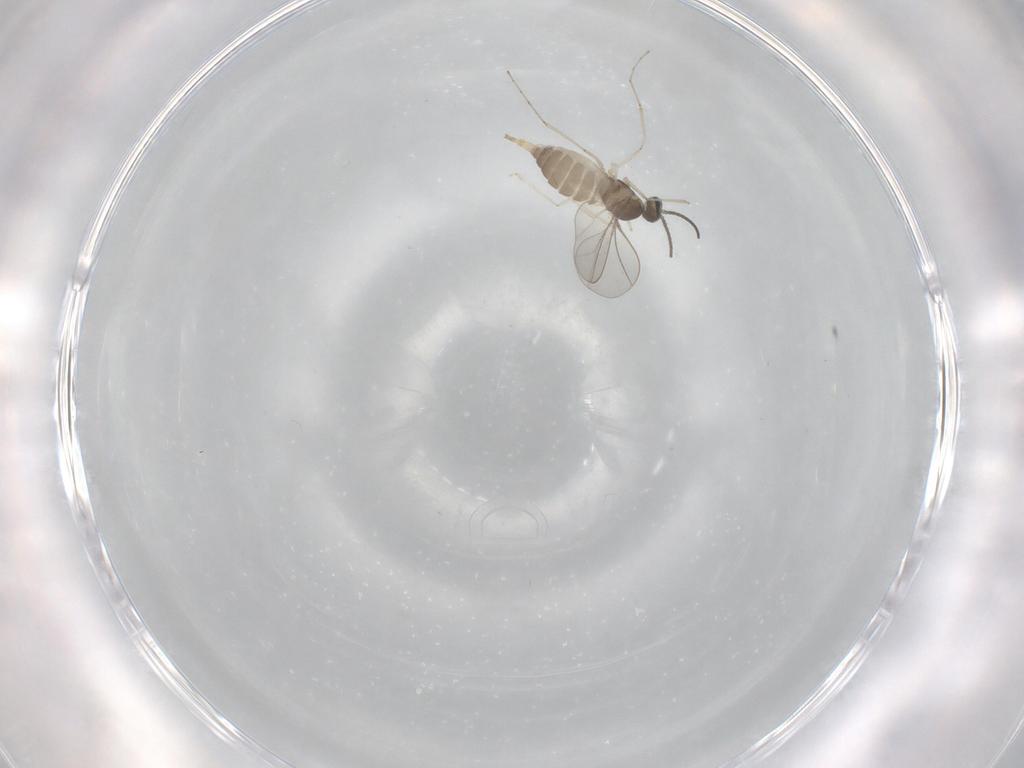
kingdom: Animalia
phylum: Arthropoda
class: Insecta
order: Diptera
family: Cecidomyiidae
